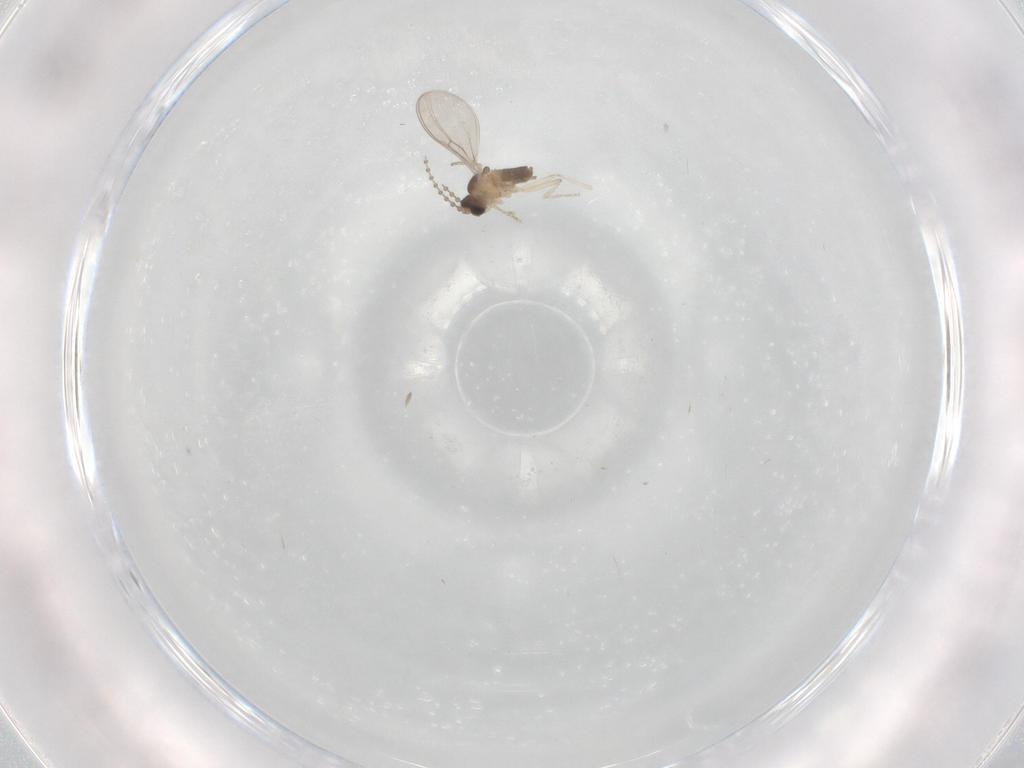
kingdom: Animalia
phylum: Arthropoda
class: Insecta
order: Diptera
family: Cecidomyiidae
